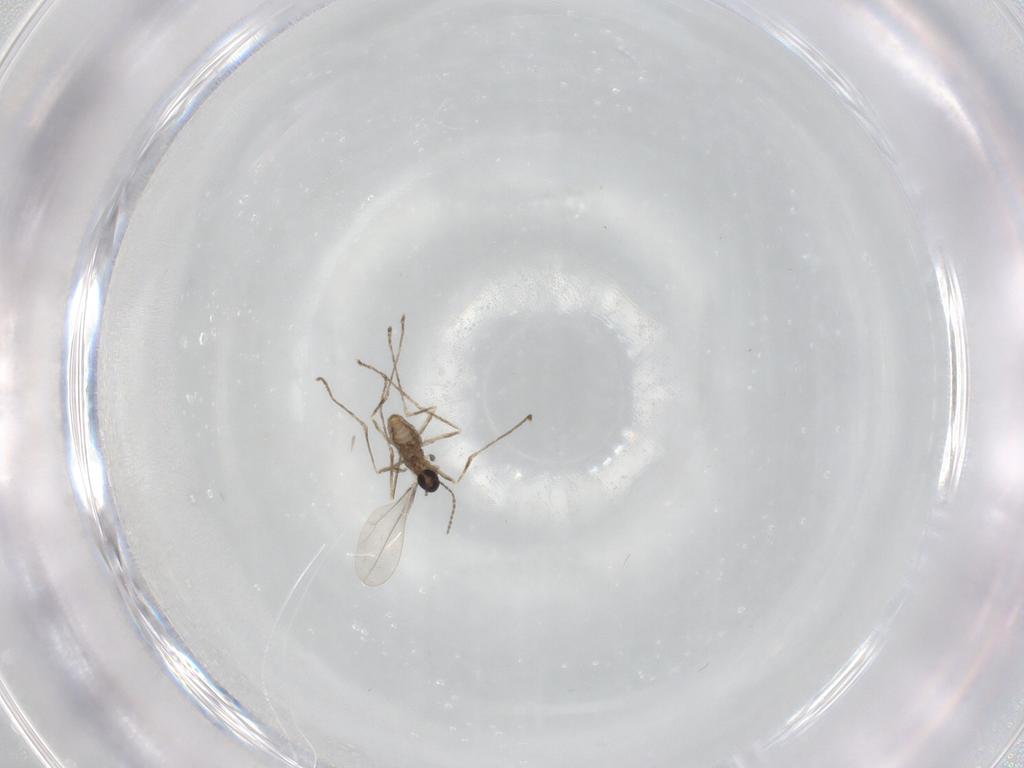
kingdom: Animalia
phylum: Arthropoda
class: Insecta
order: Diptera
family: Cecidomyiidae
